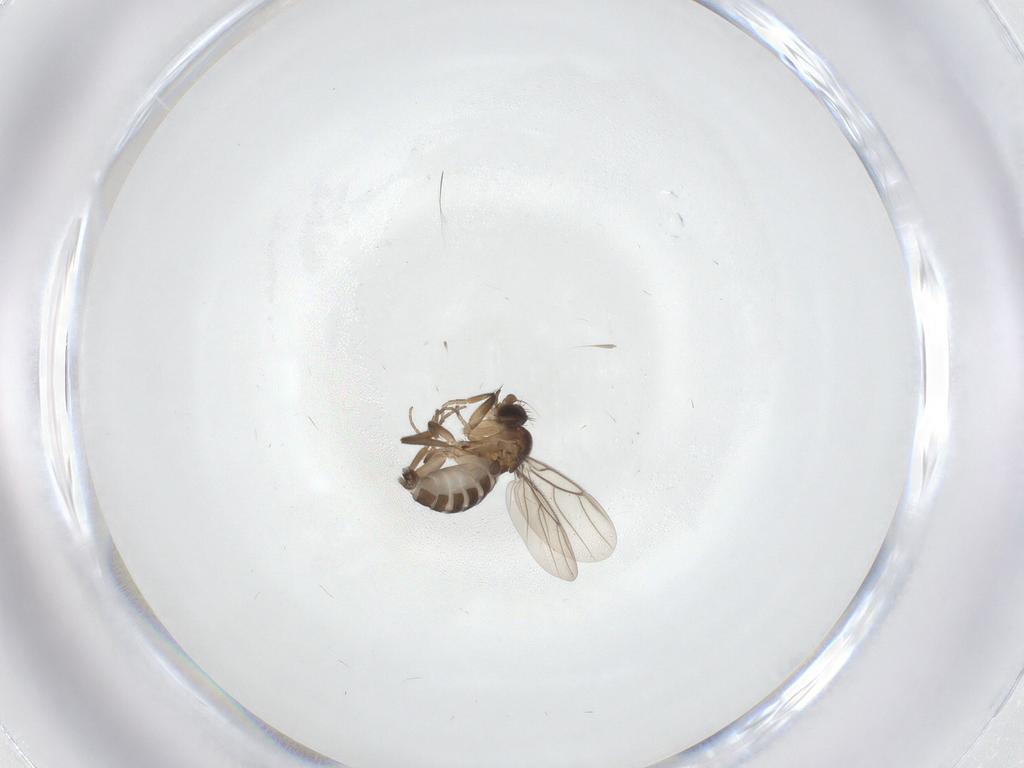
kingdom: Animalia
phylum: Arthropoda
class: Insecta
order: Diptera
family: Phoridae
